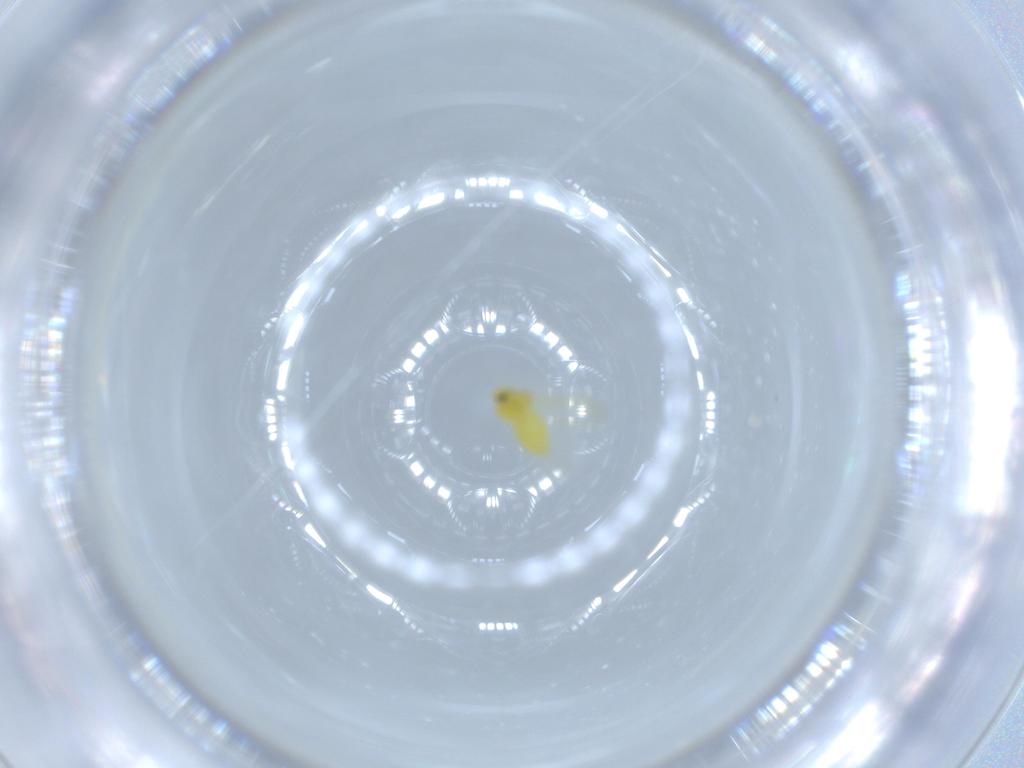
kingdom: Animalia
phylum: Arthropoda
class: Insecta
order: Hemiptera
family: Aleyrodidae
